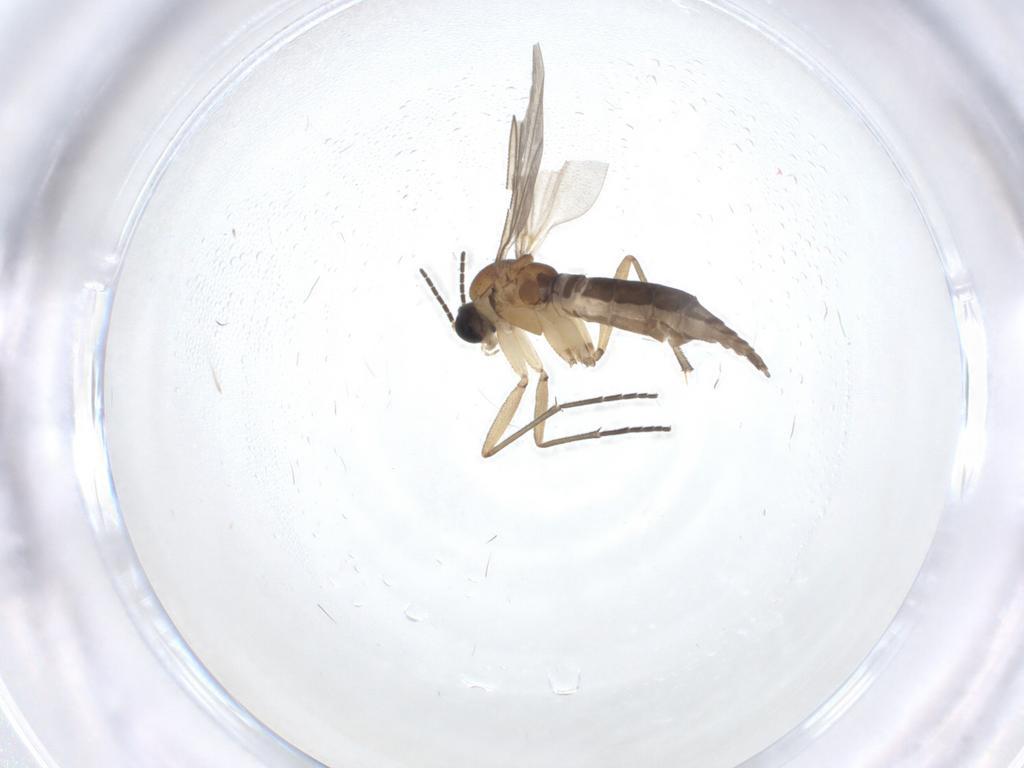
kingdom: Animalia
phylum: Arthropoda
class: Insecta
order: Diptera
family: Sciaridae
